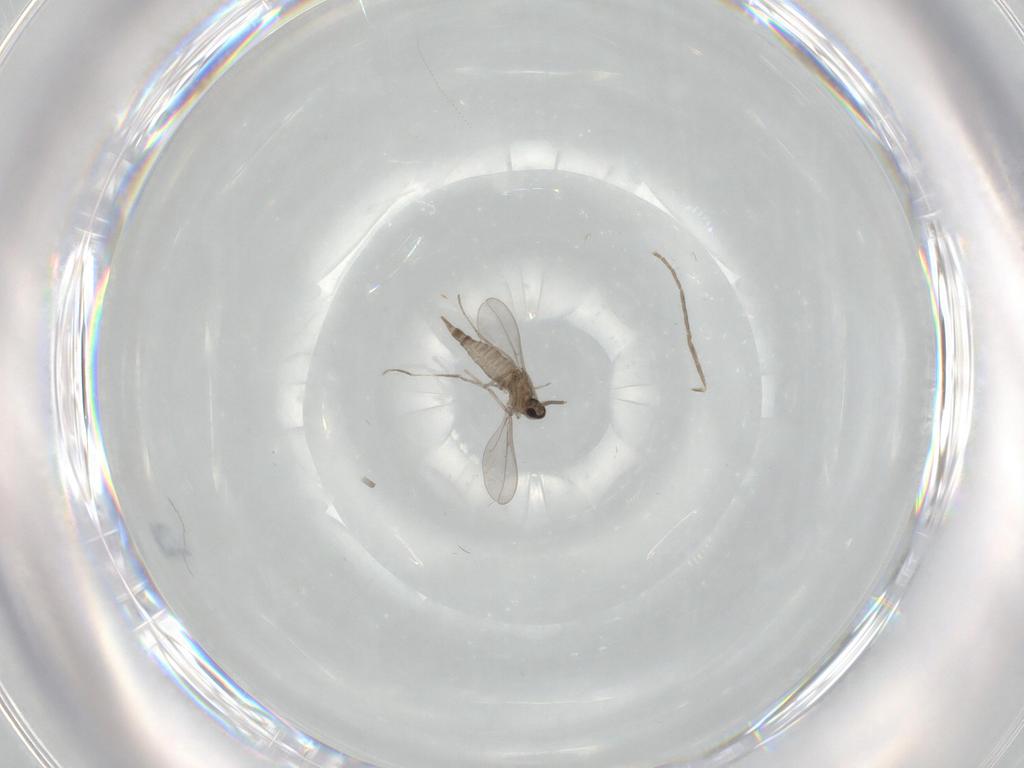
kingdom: Animalia
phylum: Arthropoda
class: Insecta
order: Diptera
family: Cecidomyiidae
